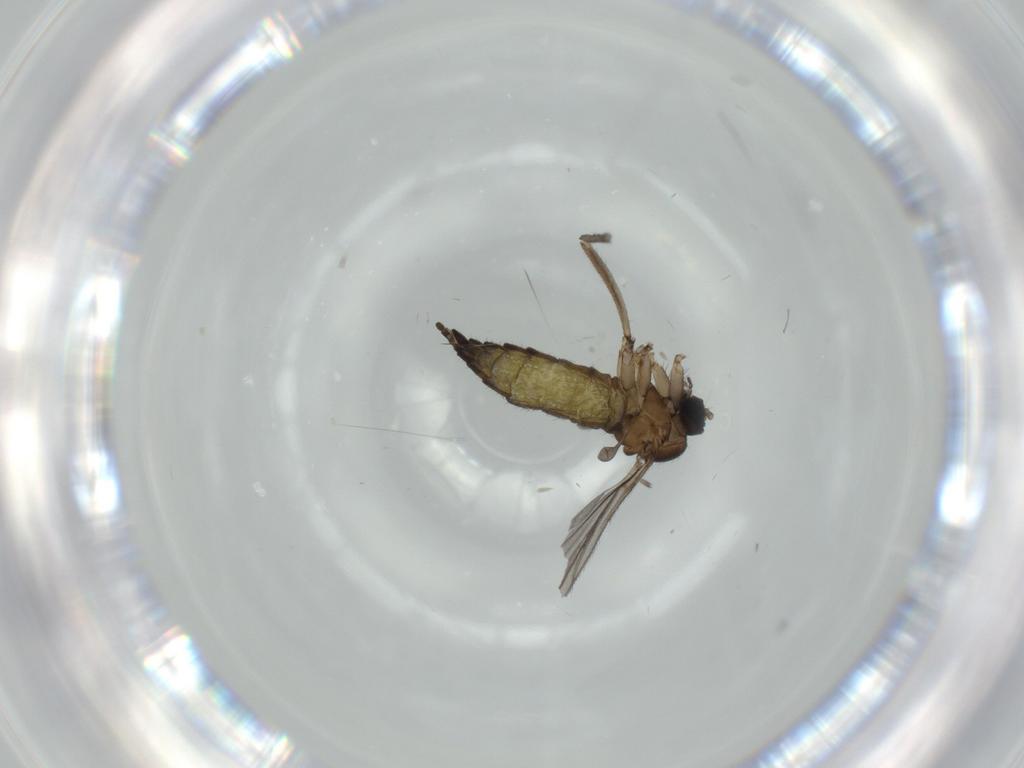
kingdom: Animalia
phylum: Arthropoda
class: Insecta
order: Diptera
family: Sciaridae
